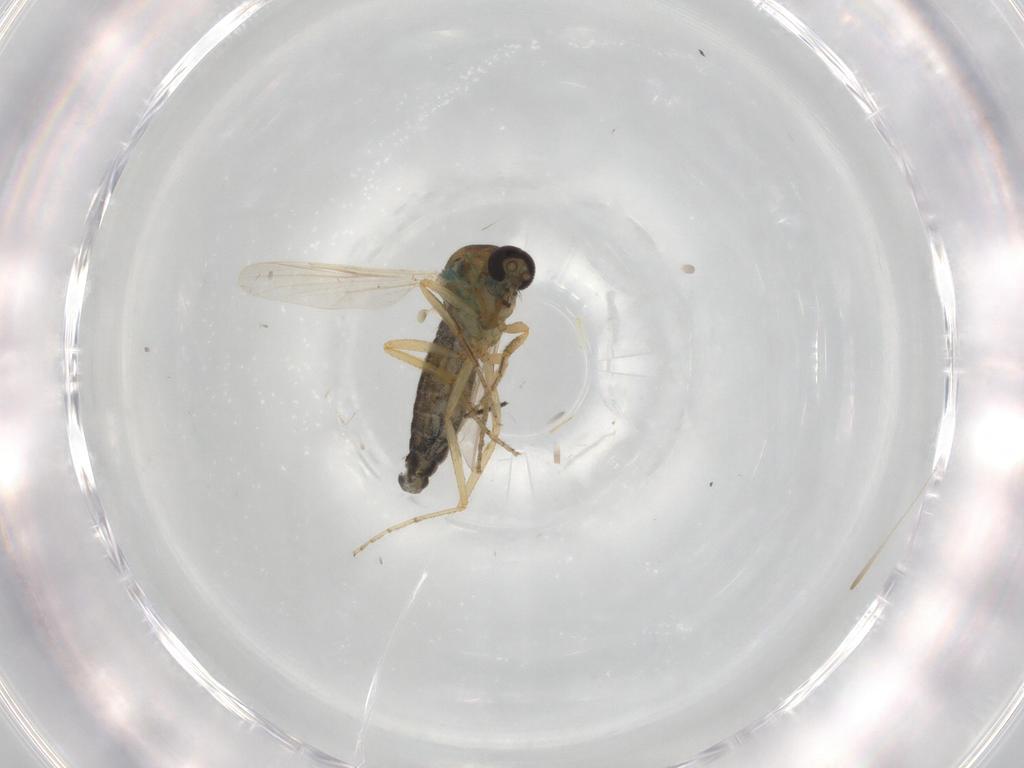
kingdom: Animalia
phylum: Arthropoda
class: Insecta
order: Diptera
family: Ceratopogonidae
